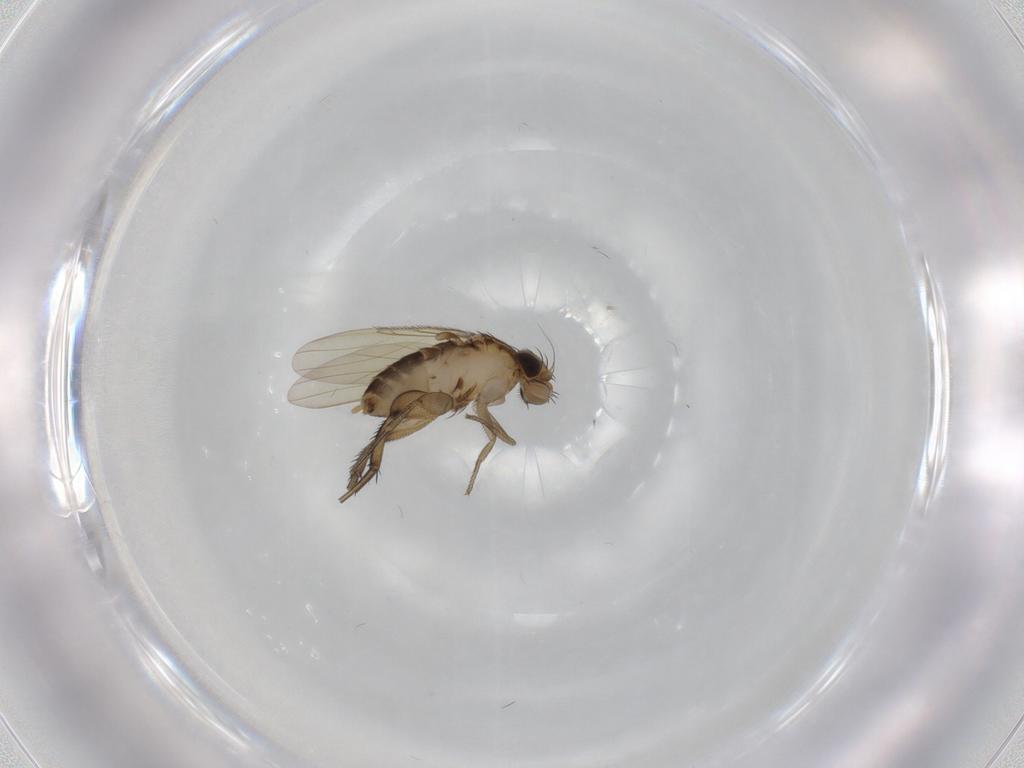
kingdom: Animalia
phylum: Arthropoda
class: Insecta
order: Diptera
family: Phoridae
